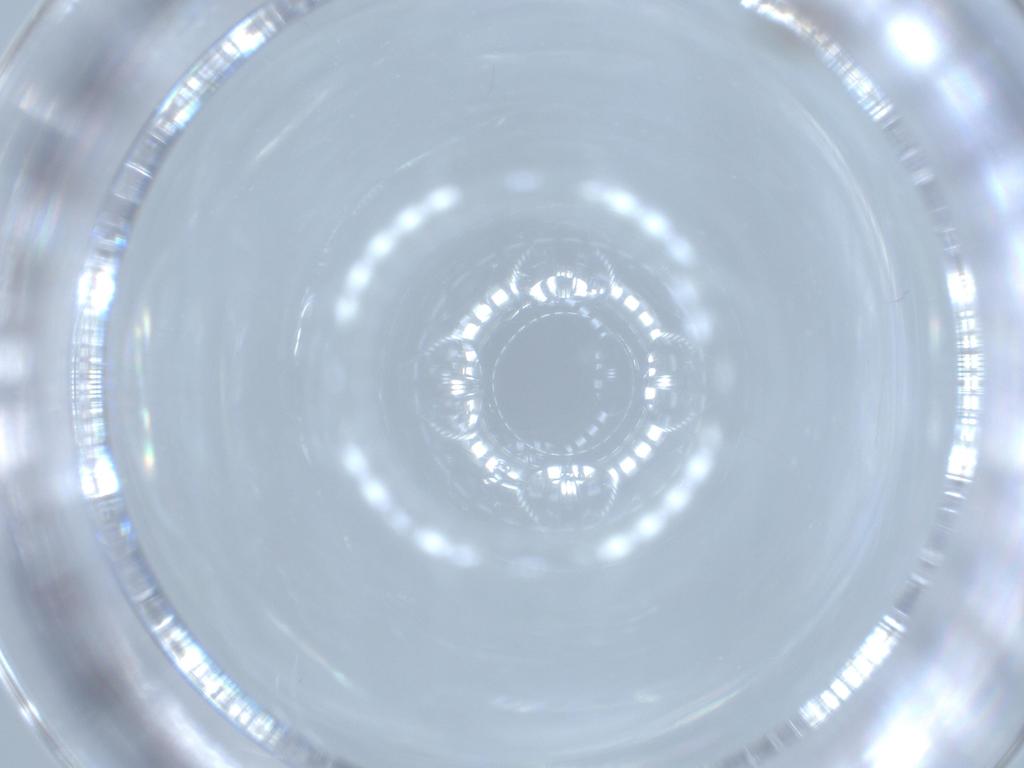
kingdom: Animalia
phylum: Arthropoda
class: Insecta
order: Diptera
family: Cecidomyiidae
